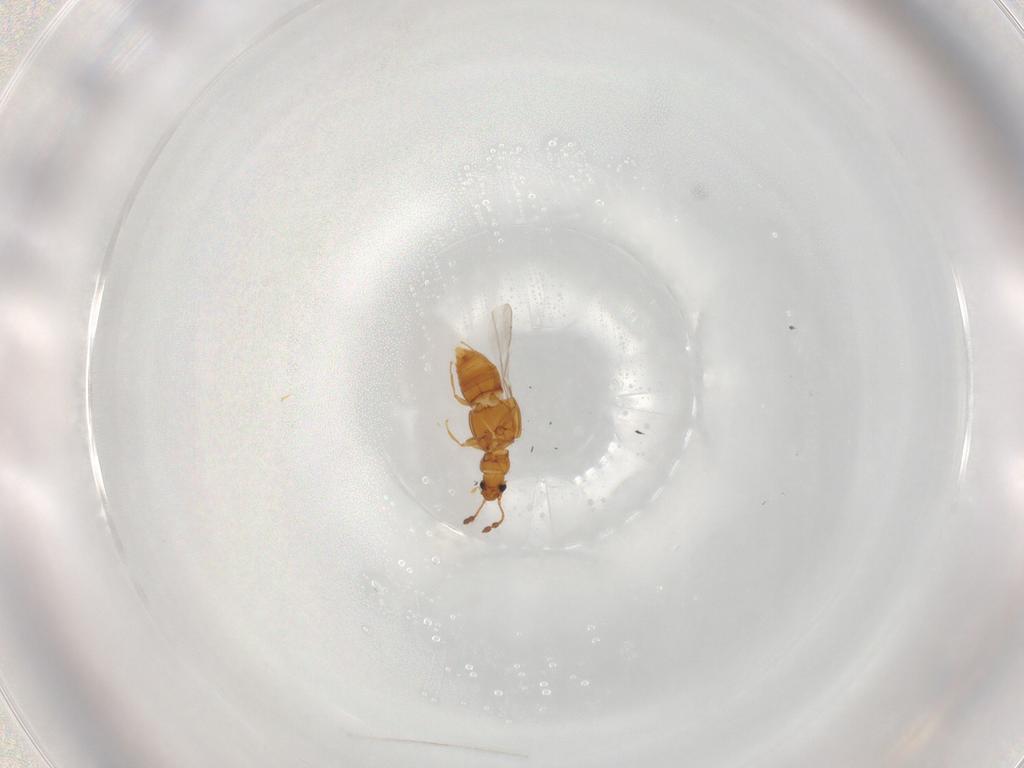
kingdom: Animalia
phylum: Arthropoda
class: Insecta
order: Coleoptera
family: Staphylinidae
